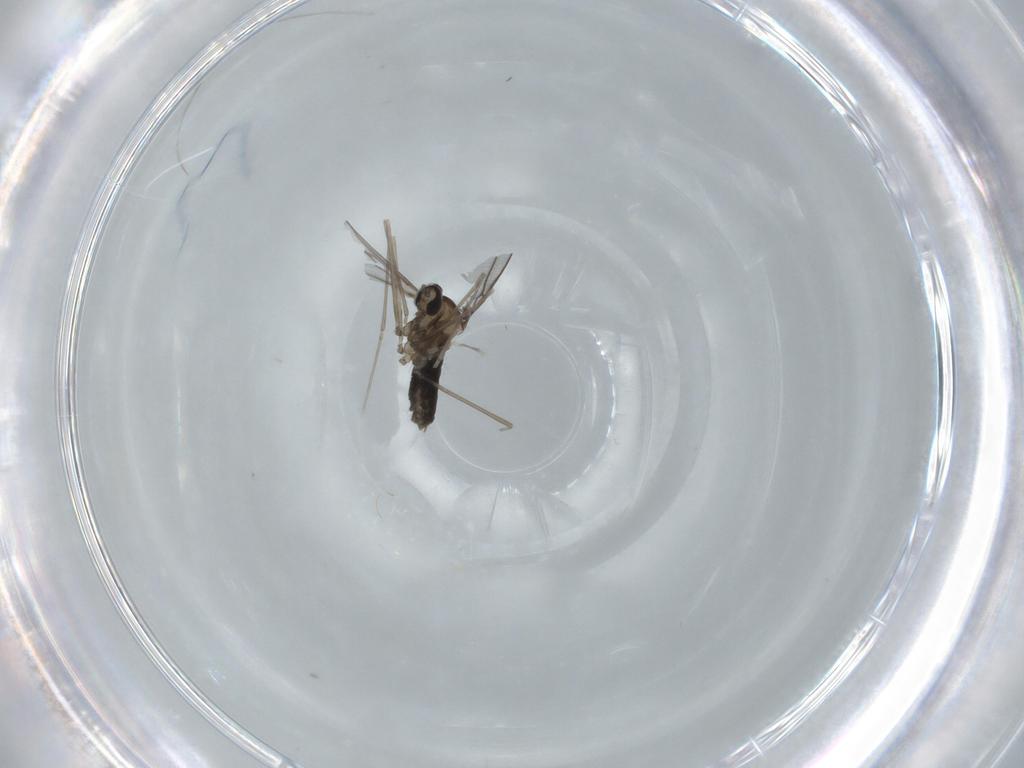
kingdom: Animalia
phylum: Arthropoda
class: Insecta
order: Diptera
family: Cecidomyiidae
